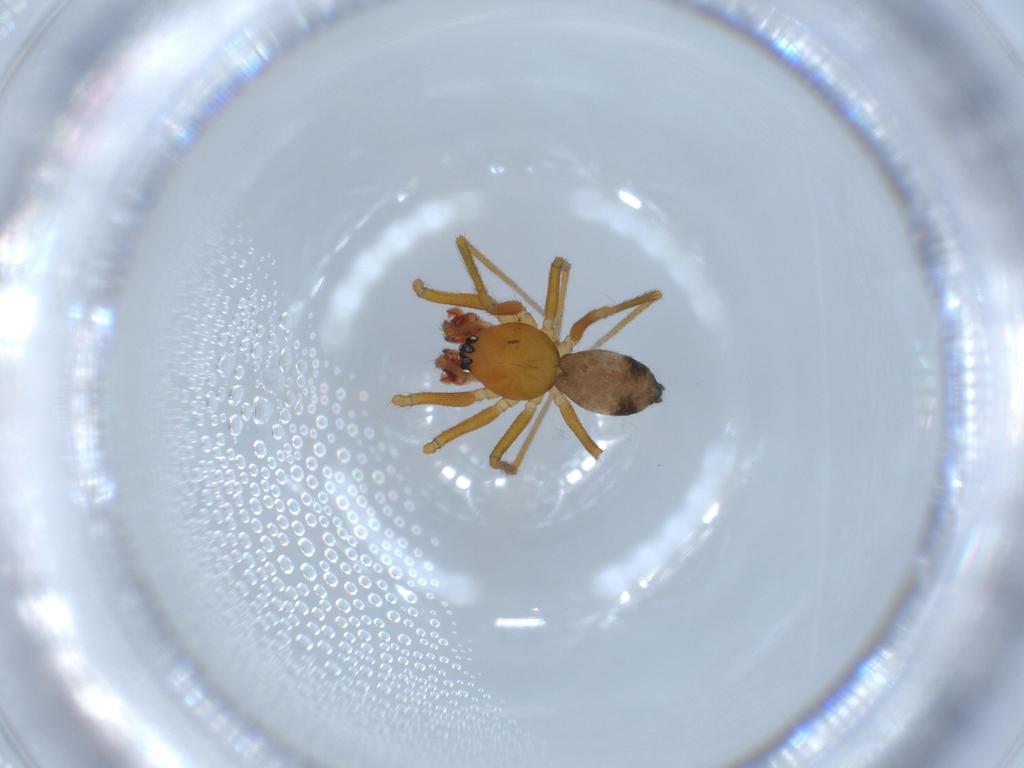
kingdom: Animalia
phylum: Arthropoda
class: Arachnida
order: Araneae
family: Linyphiidae
